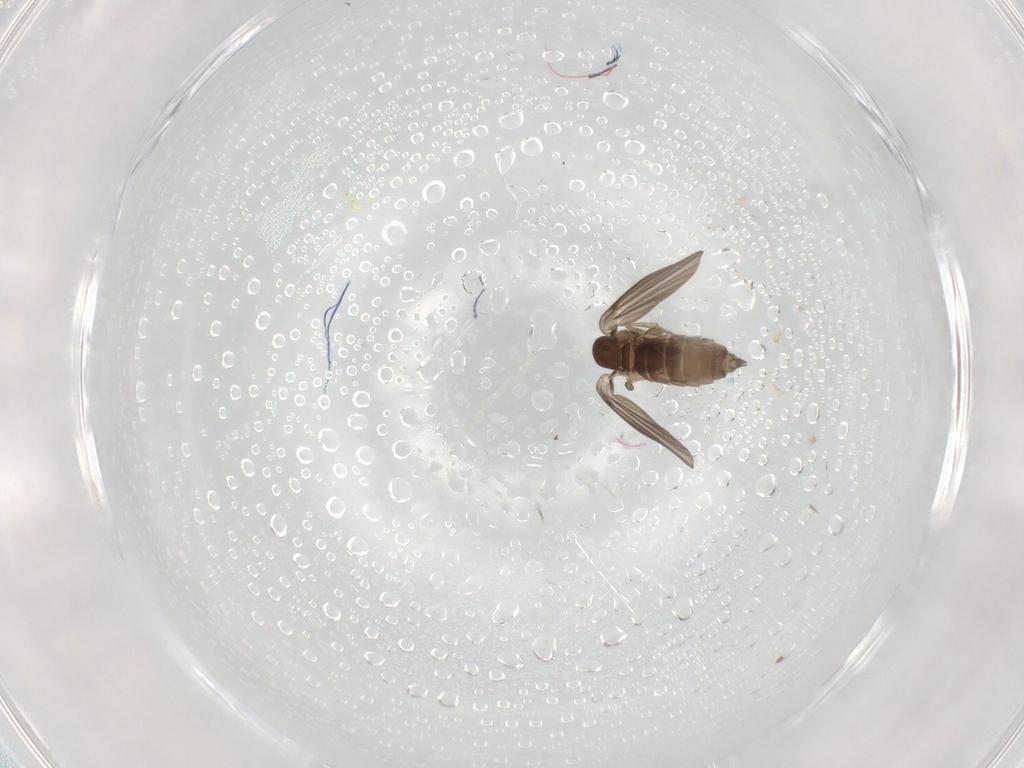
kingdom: Animalia
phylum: Arthropoda
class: Insecta
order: Diptera
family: Psychodidae
